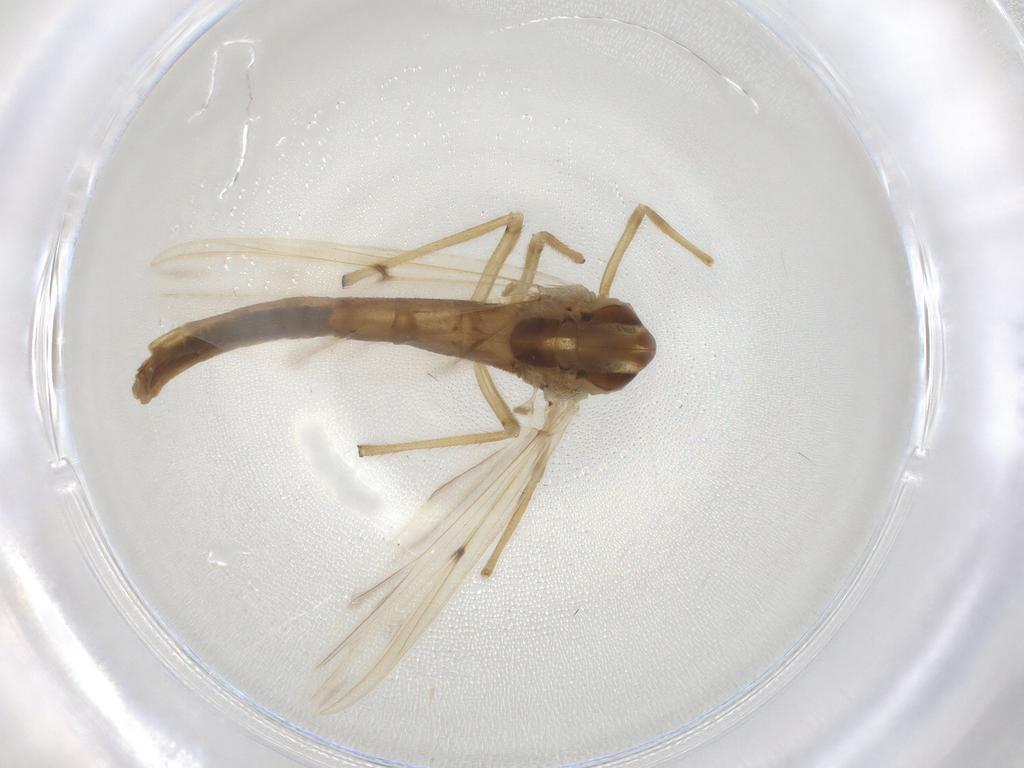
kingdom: Animalia
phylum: Arthropoda
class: Insecta
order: Diptera
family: Chironomidae
